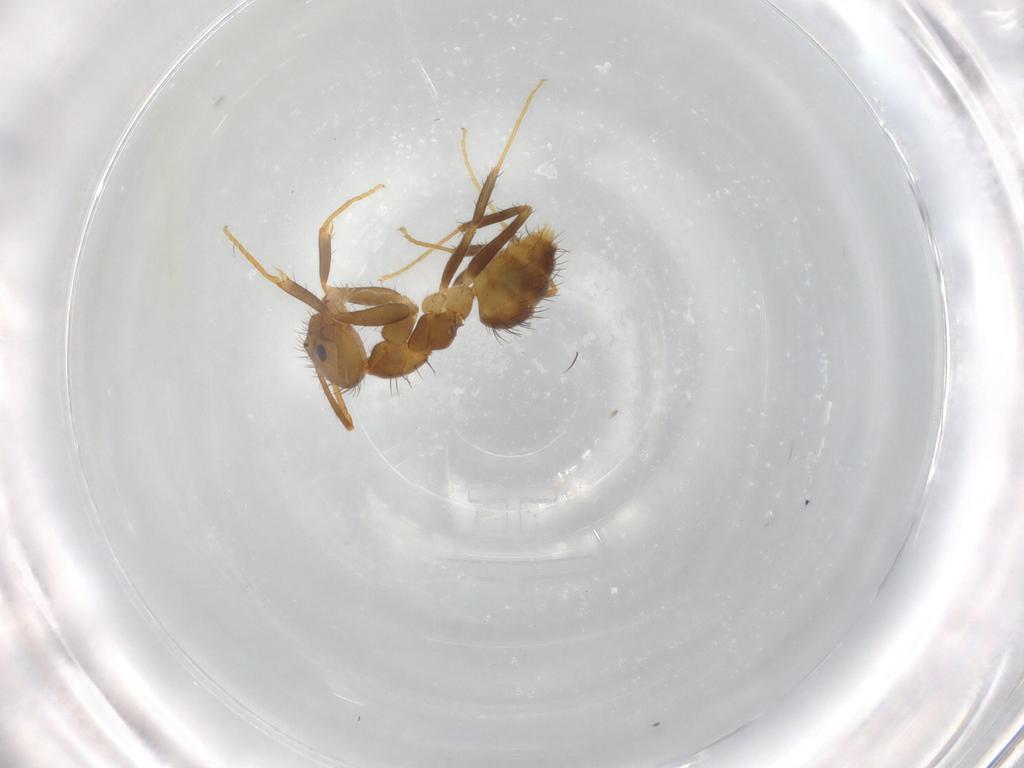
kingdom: Animalia
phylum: Arthropoda
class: Insecta
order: Hymenoptera
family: Formicidae
